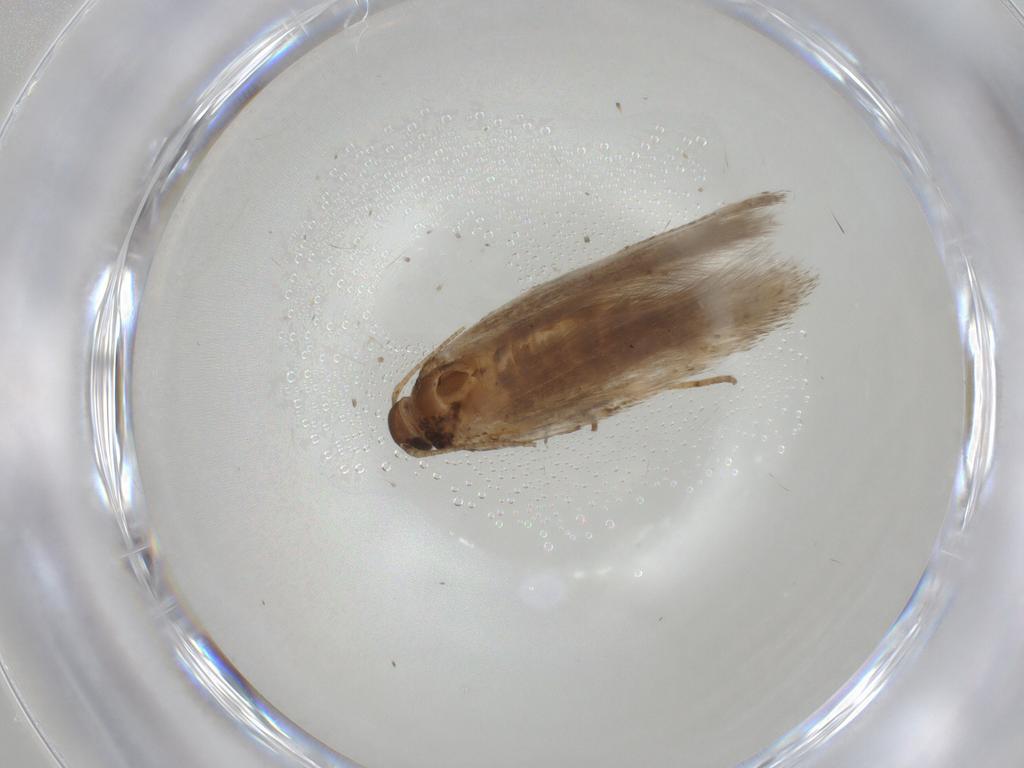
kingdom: Animalia
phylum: Arthropoda
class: Insecta
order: Lepidoptera
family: Gelechiidae
